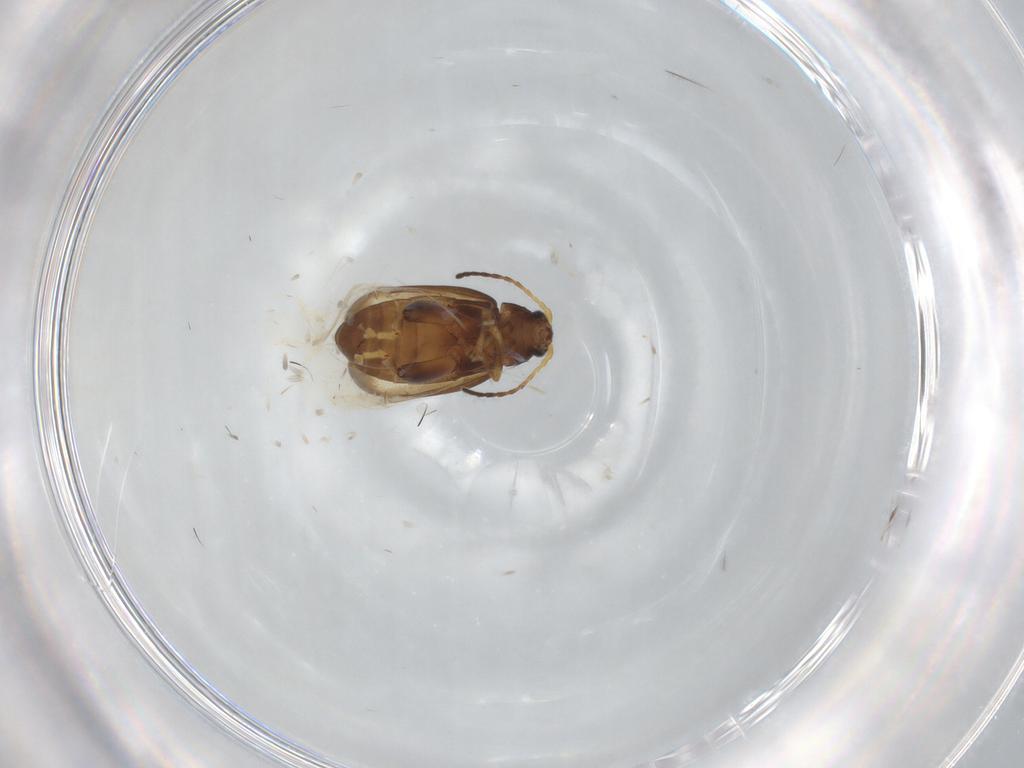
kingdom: Animalia
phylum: Arthropoda
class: Insecta
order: Coleoptera
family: Chrysomelidae
